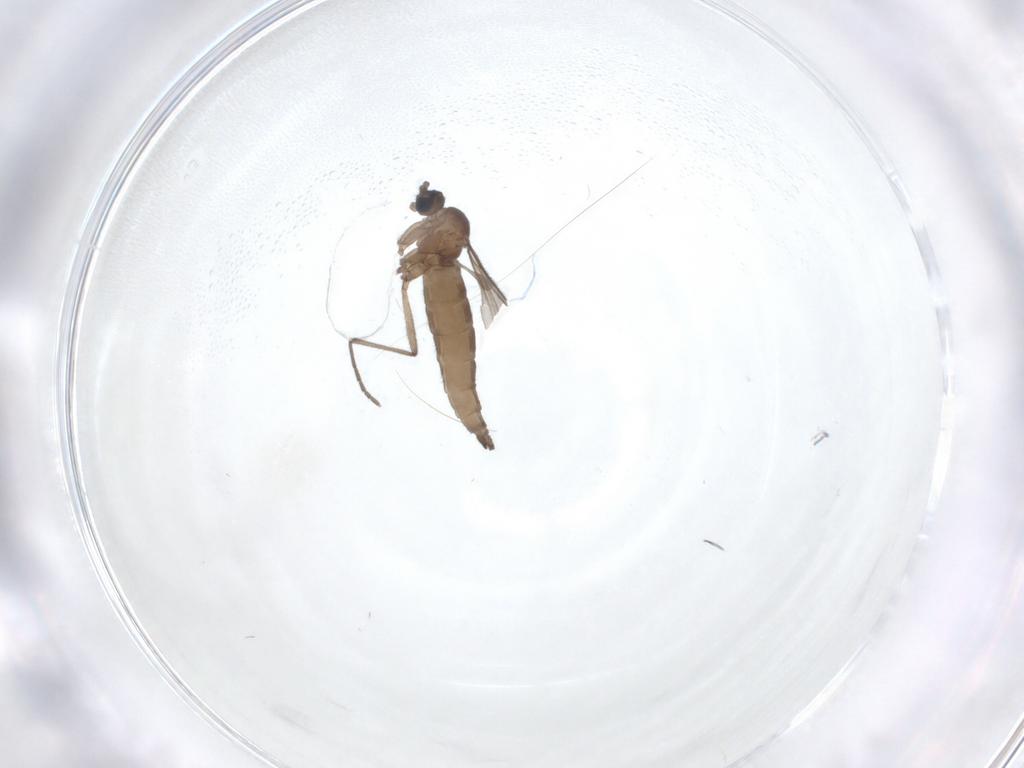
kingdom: Animalia
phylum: Arthropoda
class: Insecta
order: Diptera
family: Sciaridae
